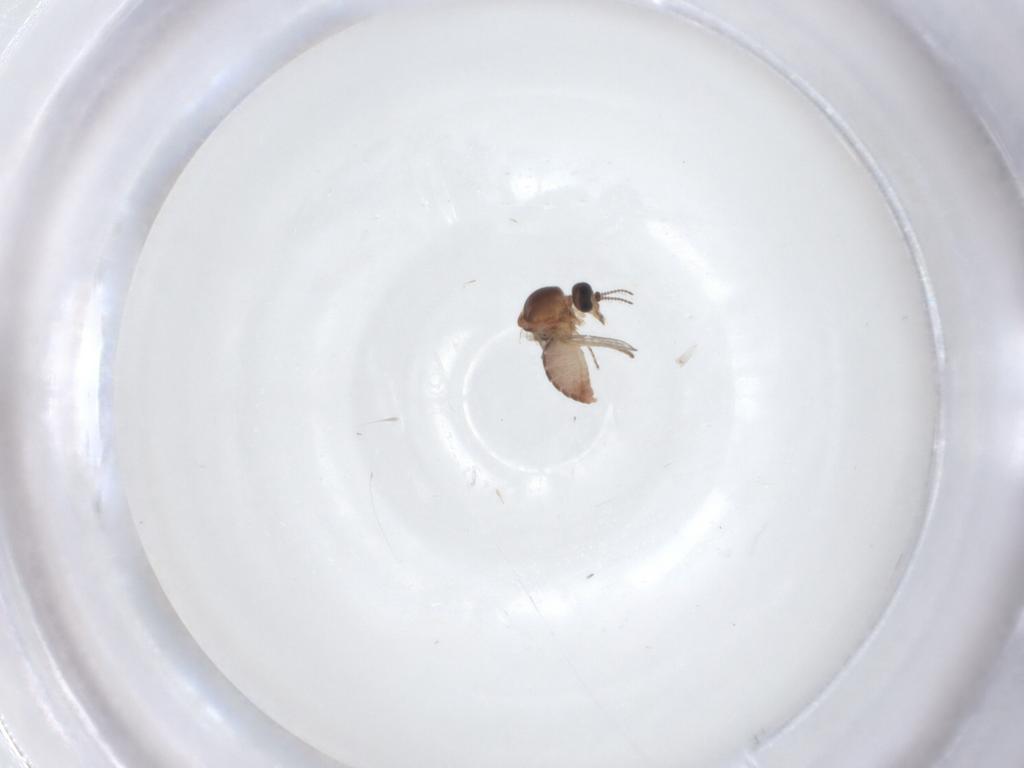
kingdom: Animalia
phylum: Arthropoda
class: Insecta
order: Diptera
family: Ceratopogonidae
